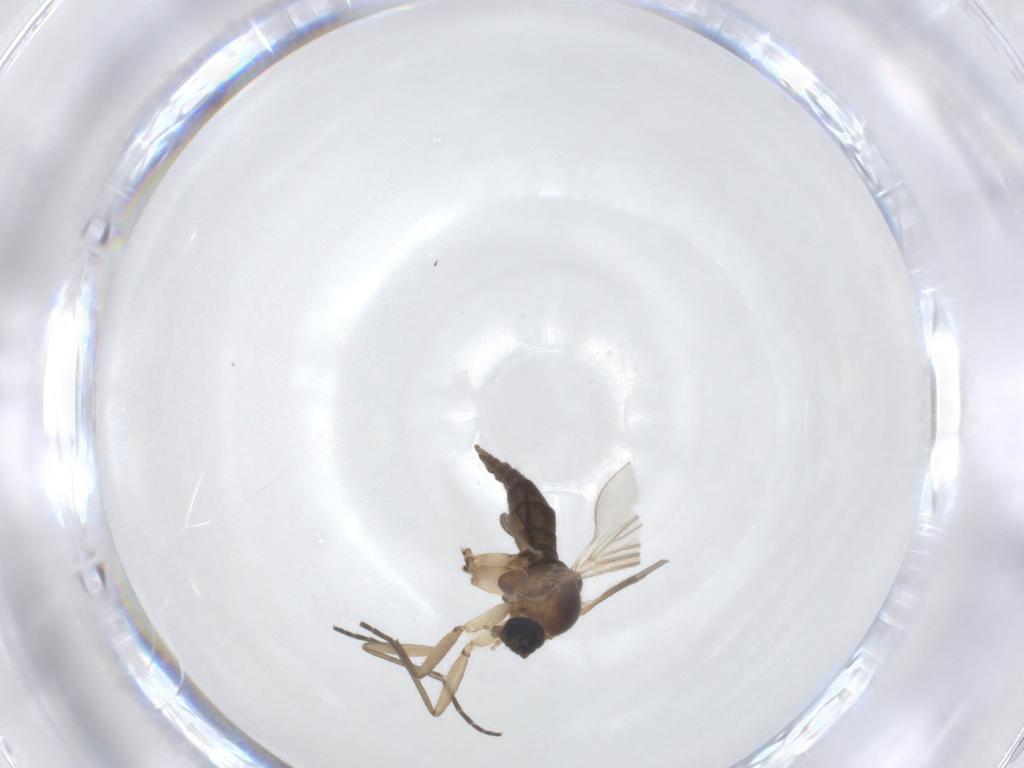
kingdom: Animalia
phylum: Arthropoda
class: Insecta
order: Diptera
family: Sciaridae
